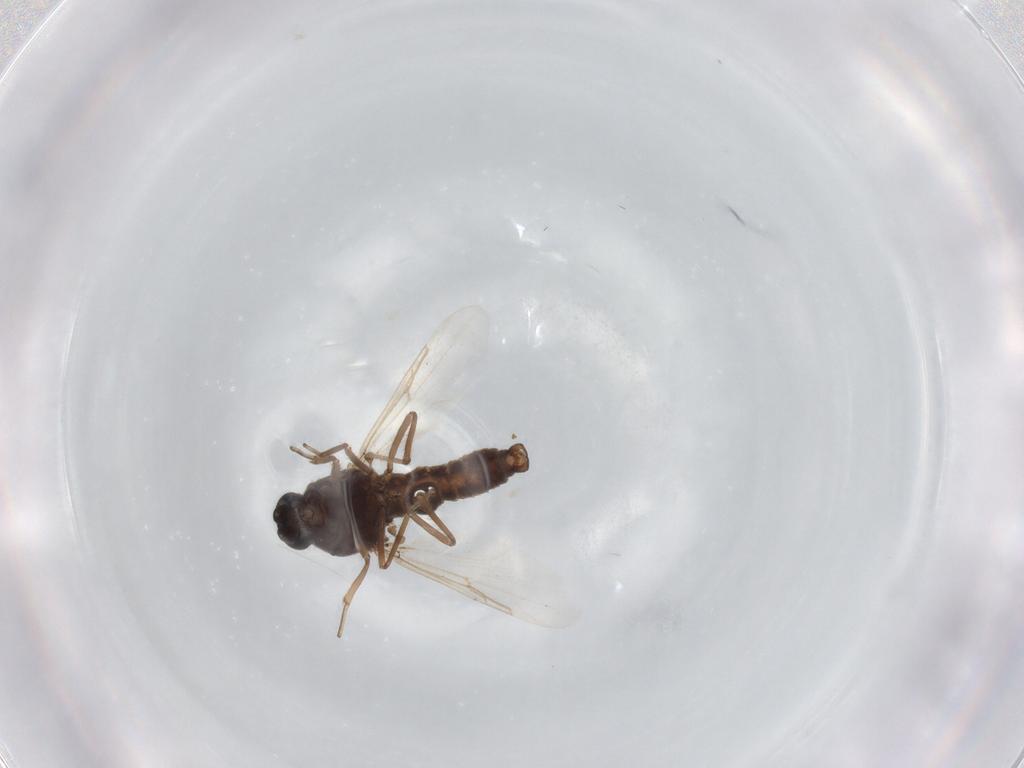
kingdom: Animalia
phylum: Arthropoda
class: Insecta
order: Diptera
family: Ceratopogonidae
